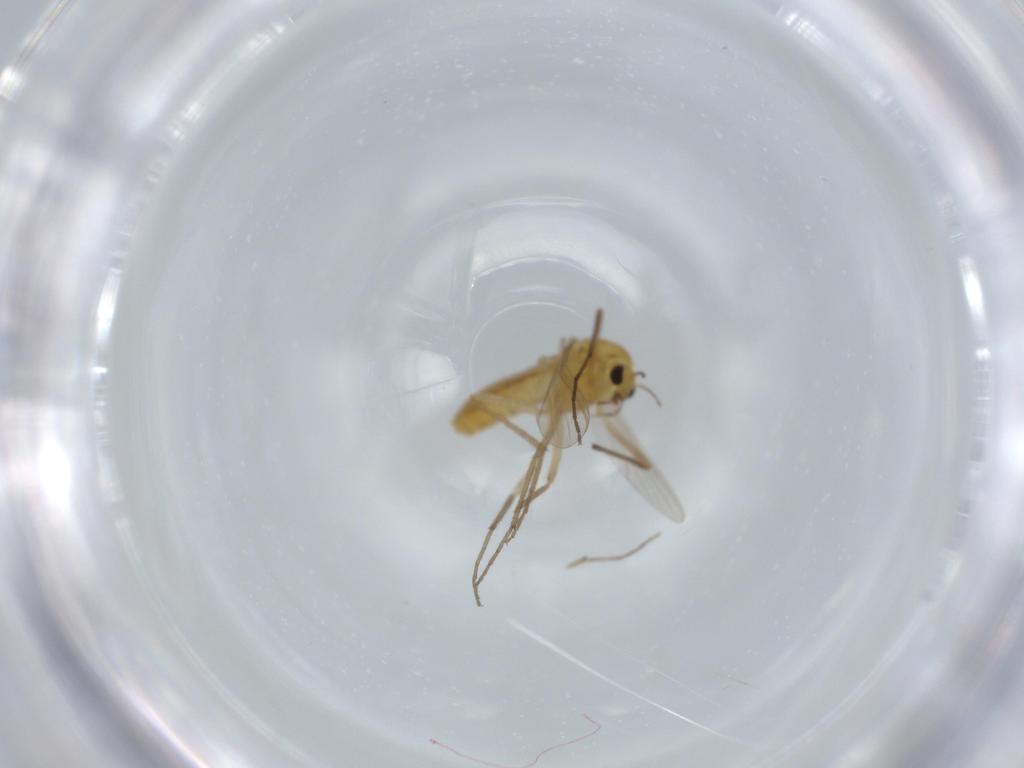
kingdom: Animalia
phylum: Arthropoda
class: Insecta
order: Diptera
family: Chironomidae
